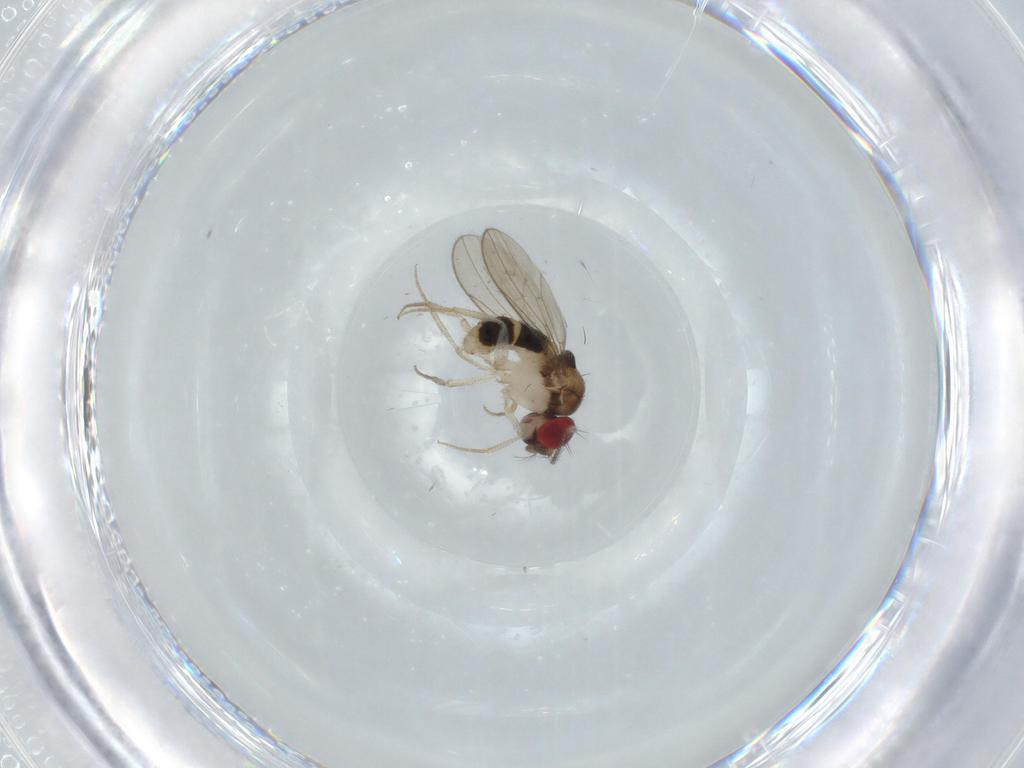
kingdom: Animalia
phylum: Arthropoda
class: Insecta
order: Diptera
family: Drosophilidae
